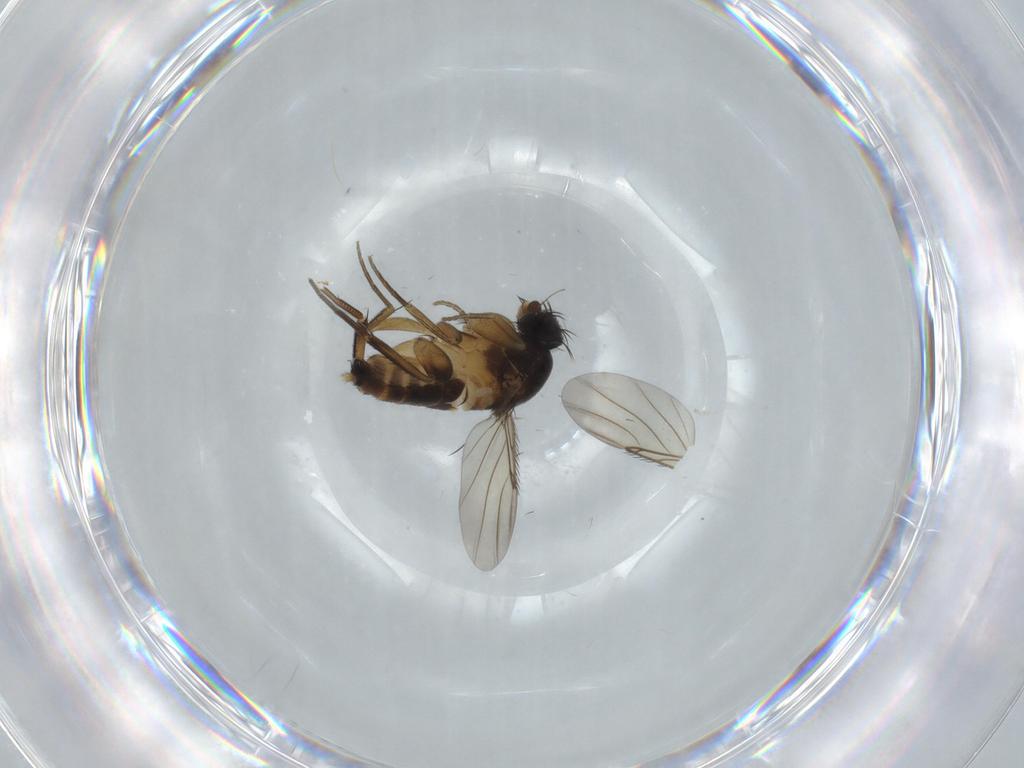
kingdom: Animalia
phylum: Arthropoda
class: Insecta
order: Diptera
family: Phoridae
